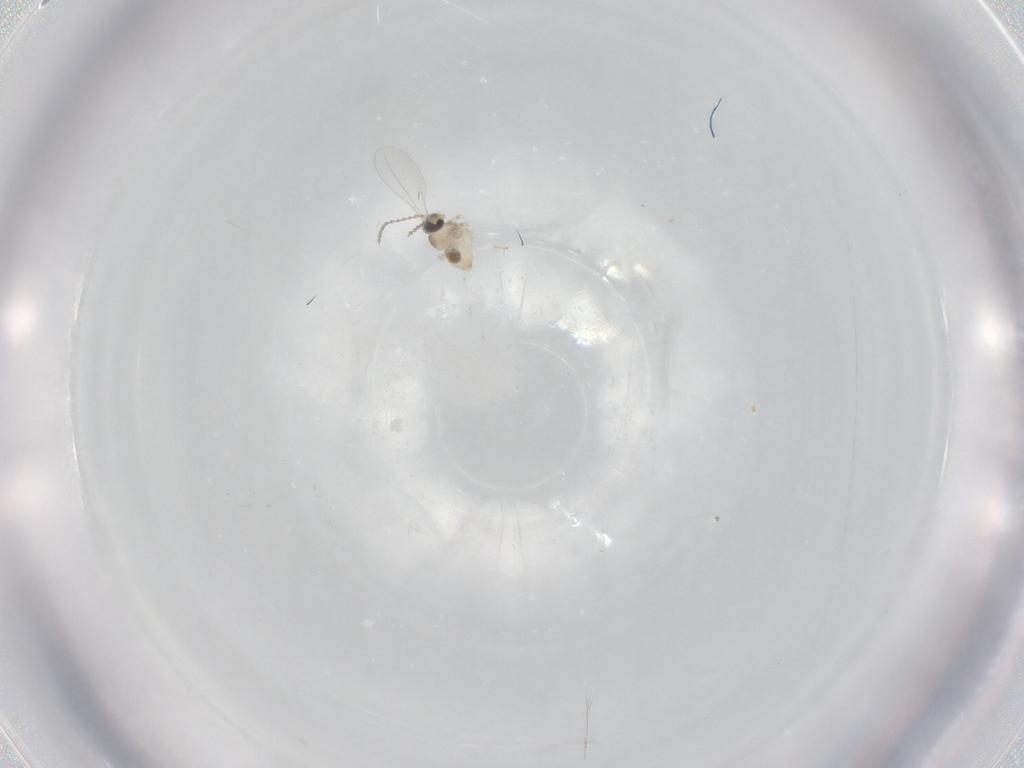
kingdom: Animalia
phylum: Arthropoda
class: Insecta
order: Diptera
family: Cecidomyiidae
